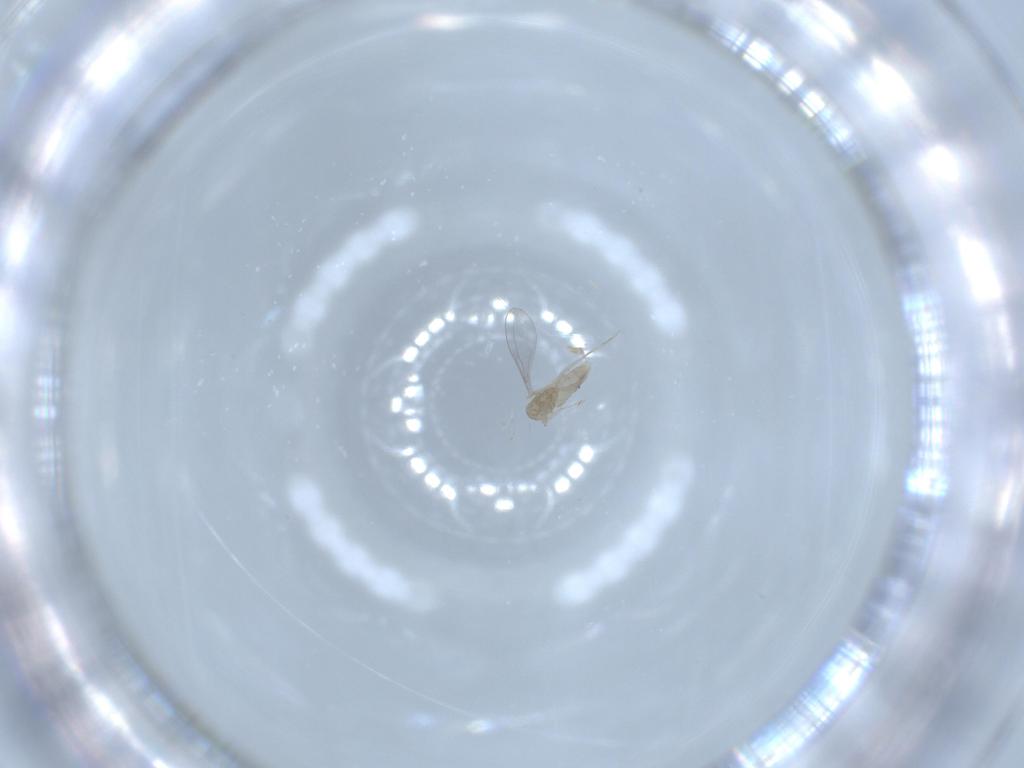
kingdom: Animalia
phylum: Arthropoda
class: Insecta
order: Diptera
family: Cecidomyiidae
